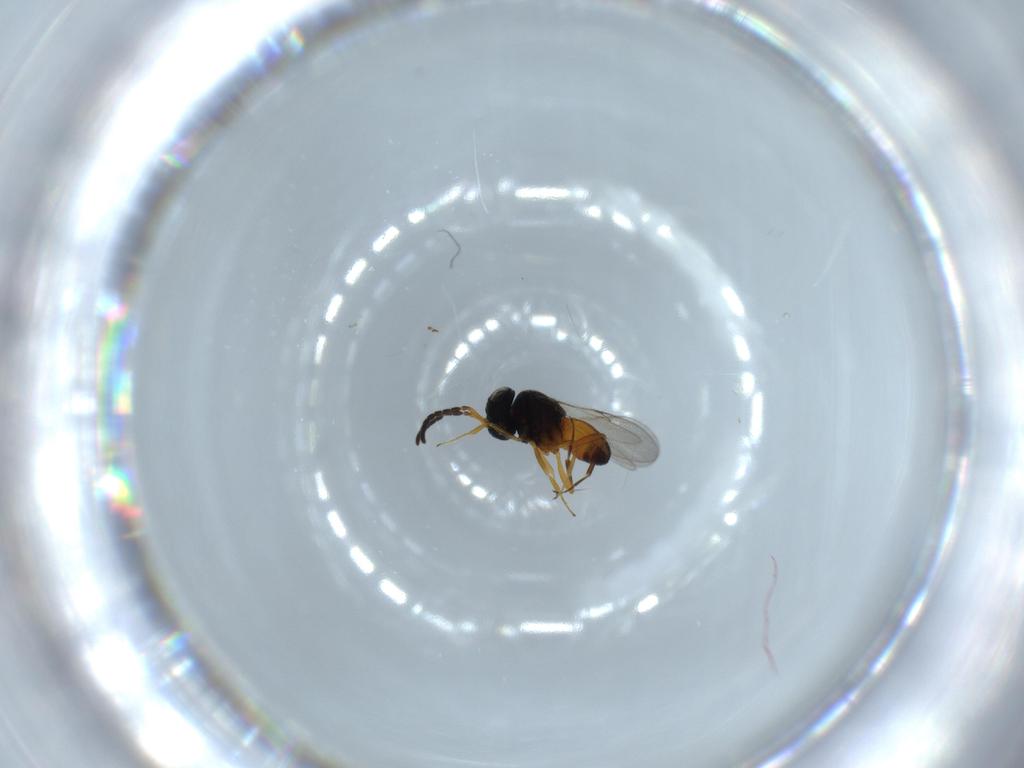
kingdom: Animalia
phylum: Arthropoda
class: Insecta
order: Hymenoptera
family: Scelionidae
